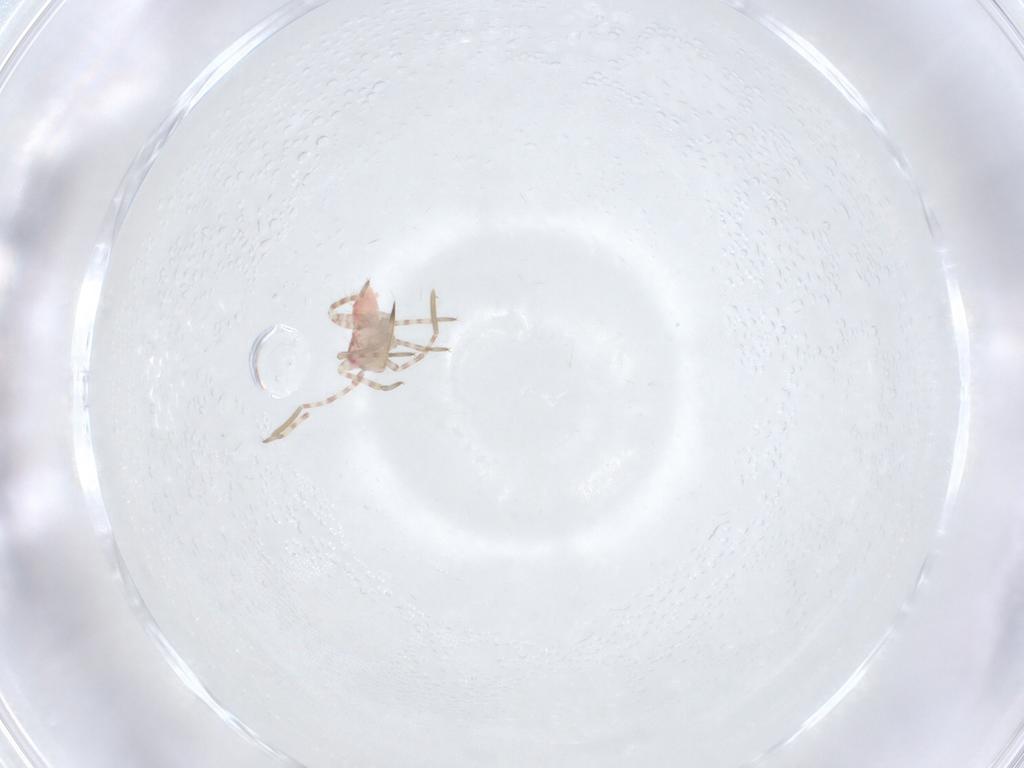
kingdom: Animalia
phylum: Arthropoda
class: Insecta
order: Hemiptera
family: Miridae
